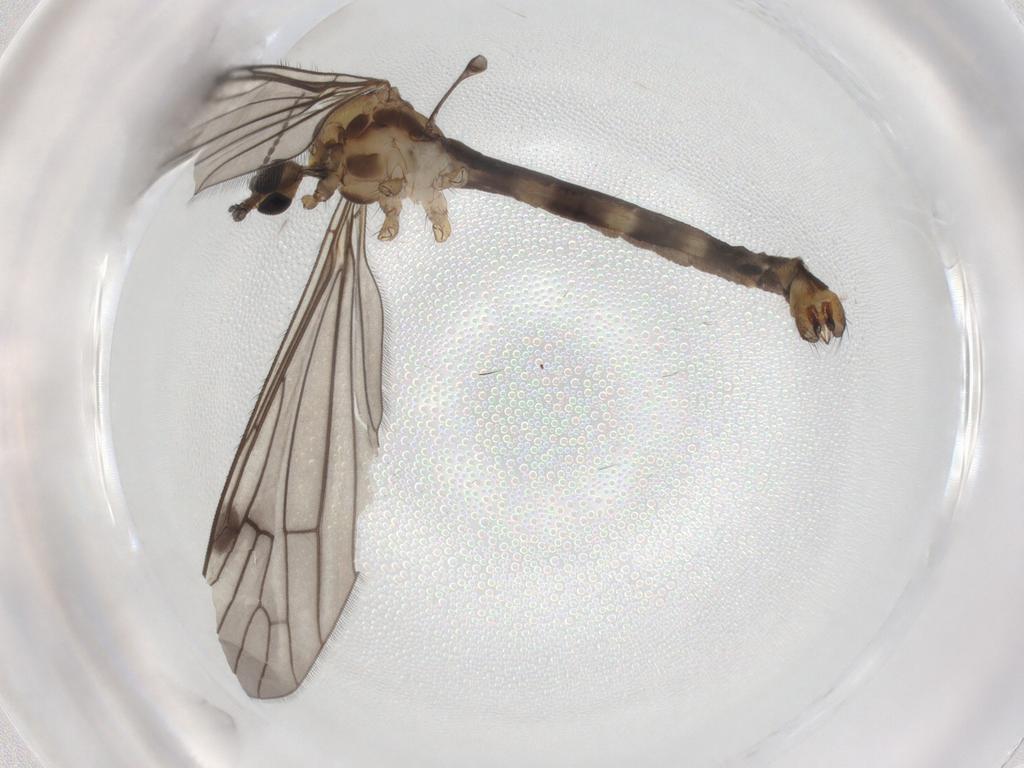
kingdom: Animalia
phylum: Arthropoda
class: Insecta
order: Diptera
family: Limoniidae
